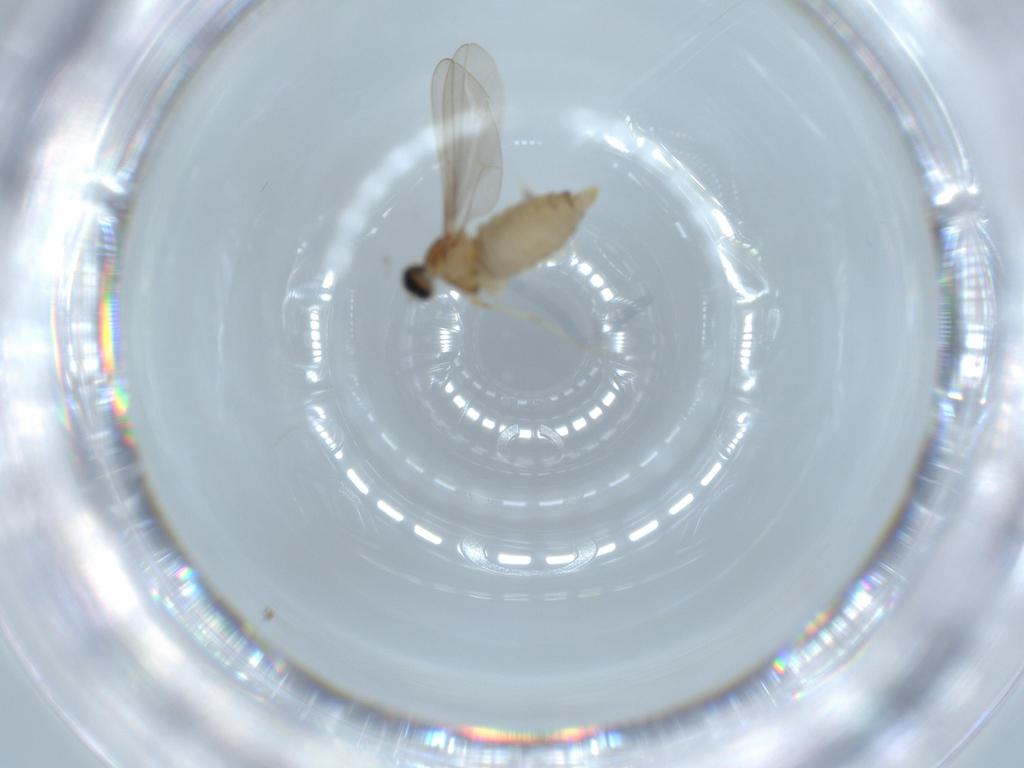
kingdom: Animalia
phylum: Arthropoda
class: Insecta
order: Diptera
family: Cecidomyiidae
